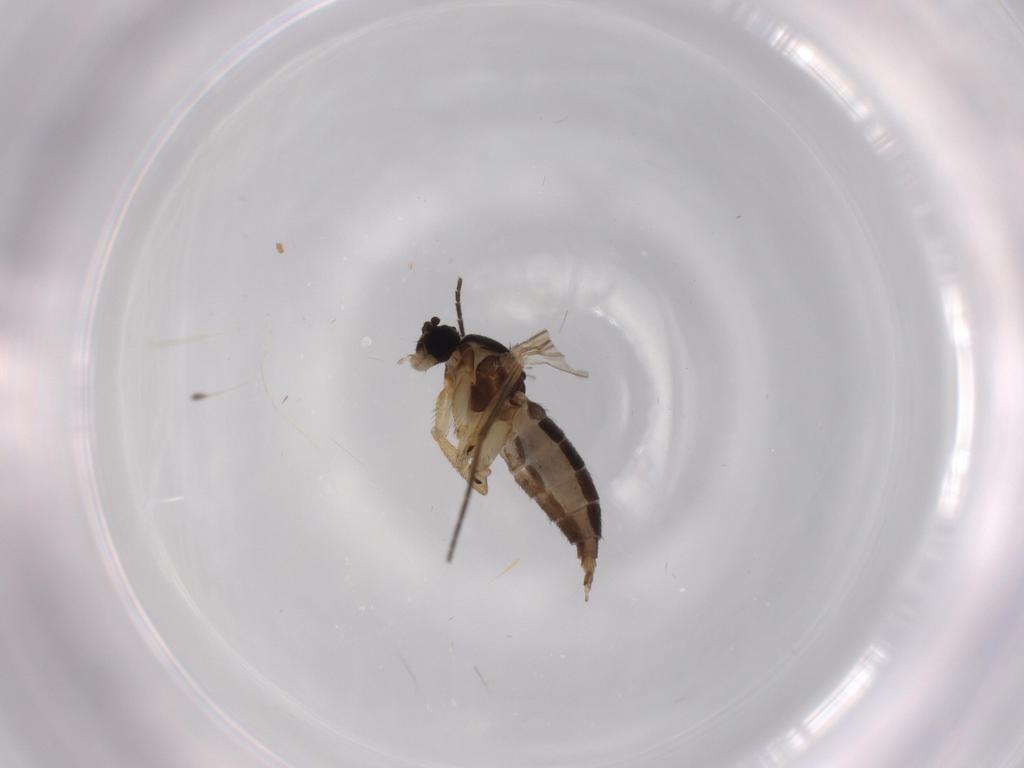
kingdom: Animalia
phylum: Arthropoda
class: Insecta
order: Diptera
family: Sciaridae
